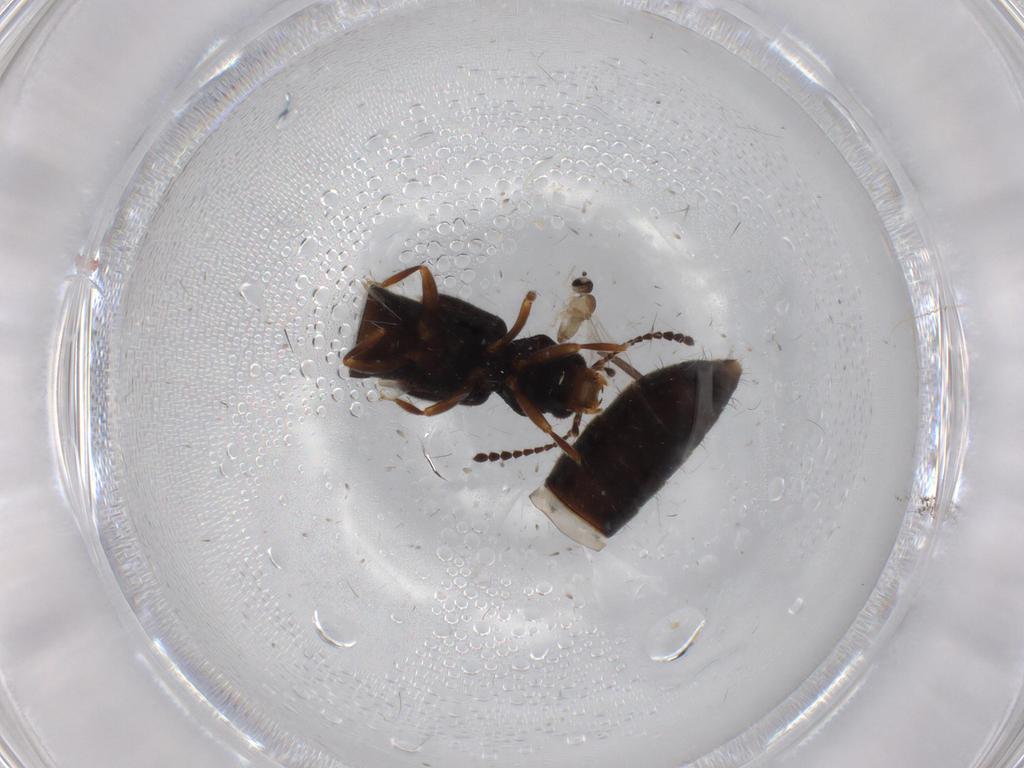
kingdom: Animalia
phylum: Arthropoda
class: Insecta
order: Coleoptera
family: Staphylinidae
